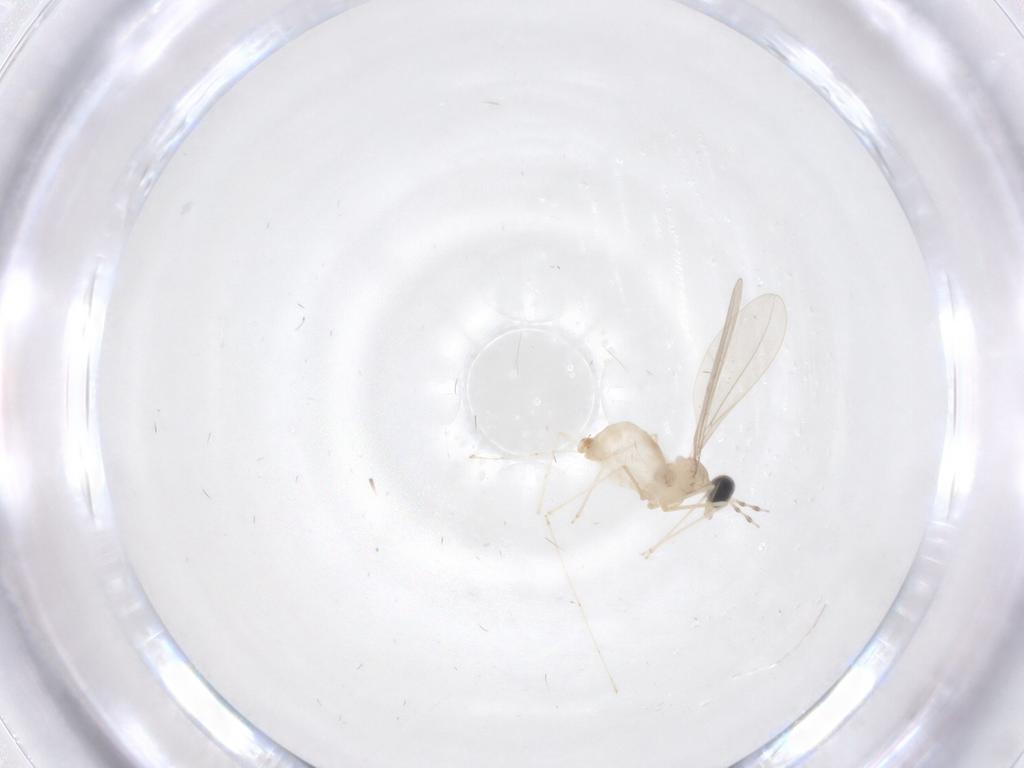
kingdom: Animalia
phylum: Arthropoda
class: Insecta
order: Diptera
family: Cecidomyiidae
